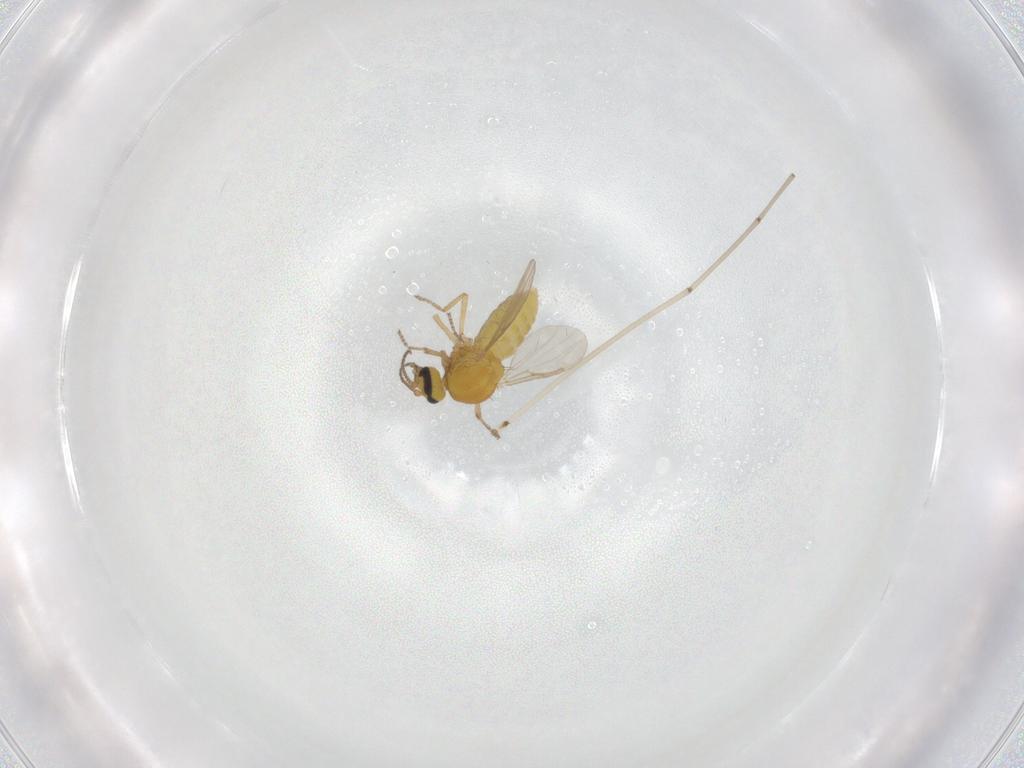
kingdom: Animalia
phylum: Arthropoda
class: Insecta
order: Diptera
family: Ceratopogonidae
